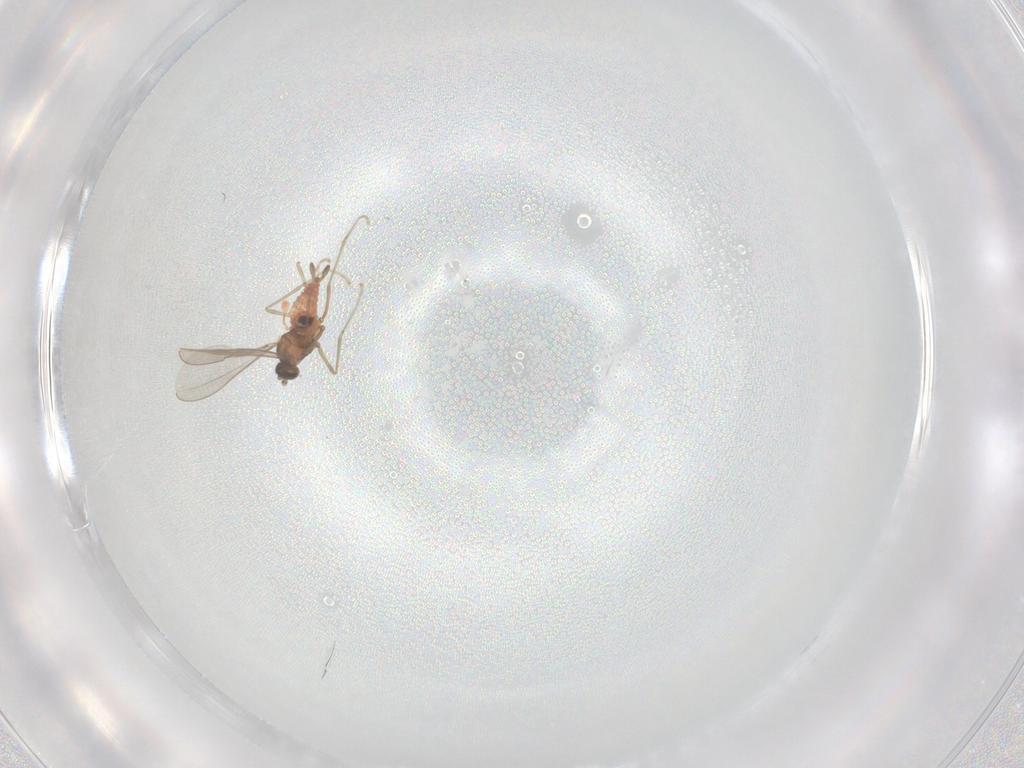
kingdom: Animalia
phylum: Arthropoda
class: Insecta
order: Diptera
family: Cecidomyiidae
